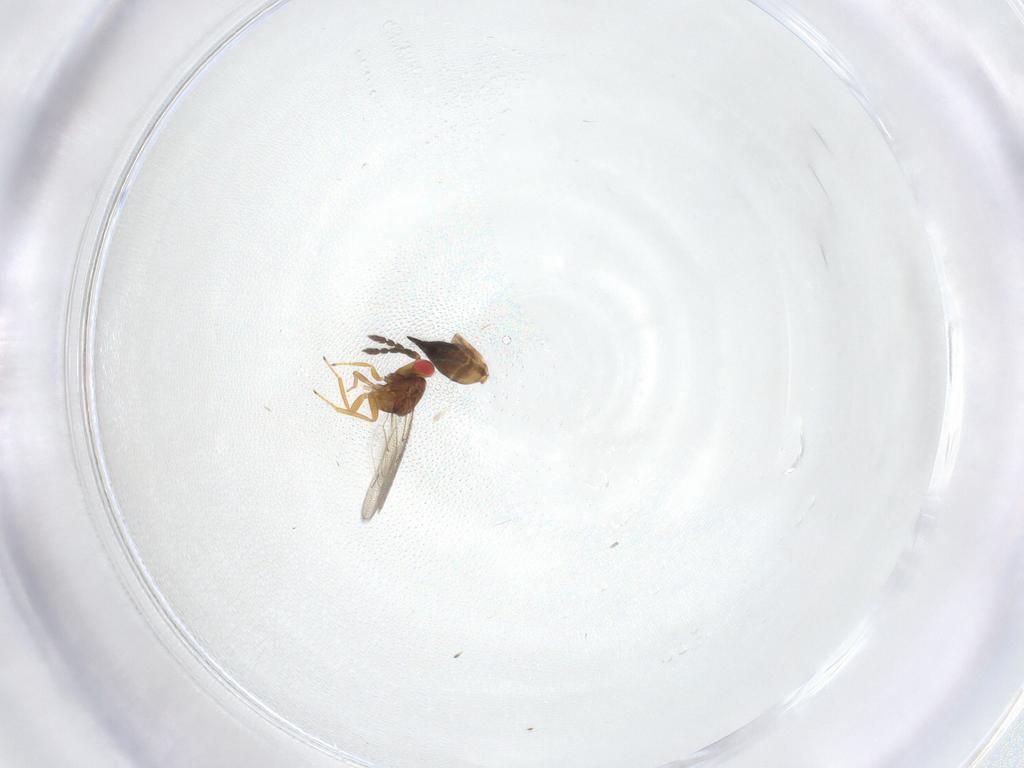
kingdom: Animalia
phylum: Arthropoda
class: Insecta
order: Hymenoptera
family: Eulophidae
